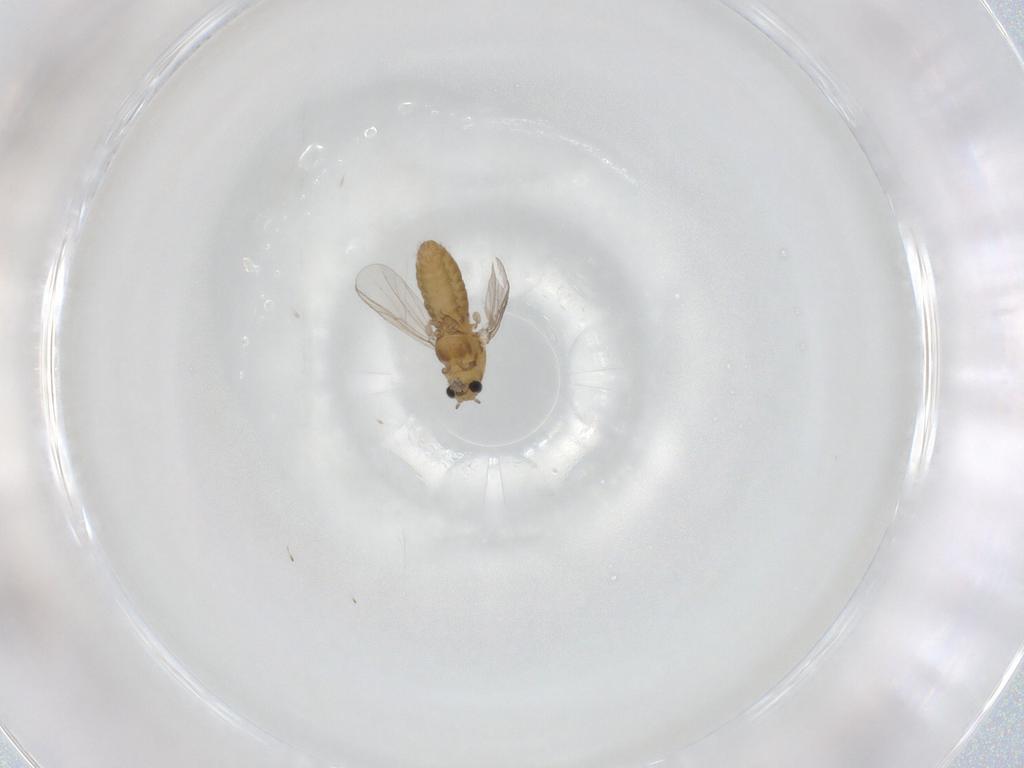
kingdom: Animalia
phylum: Arthropoda
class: Insecta
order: Diptera
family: Chironomidae
